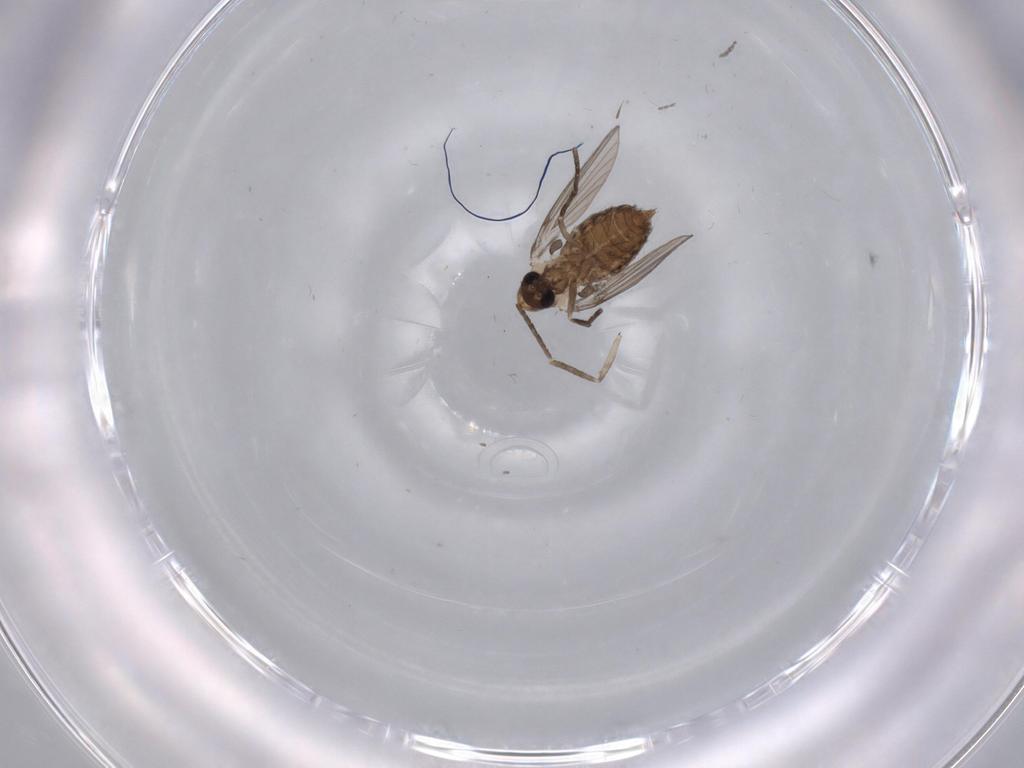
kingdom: Animalia
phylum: Arthropoda
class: Insecta
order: Diptera
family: Psychodidae
